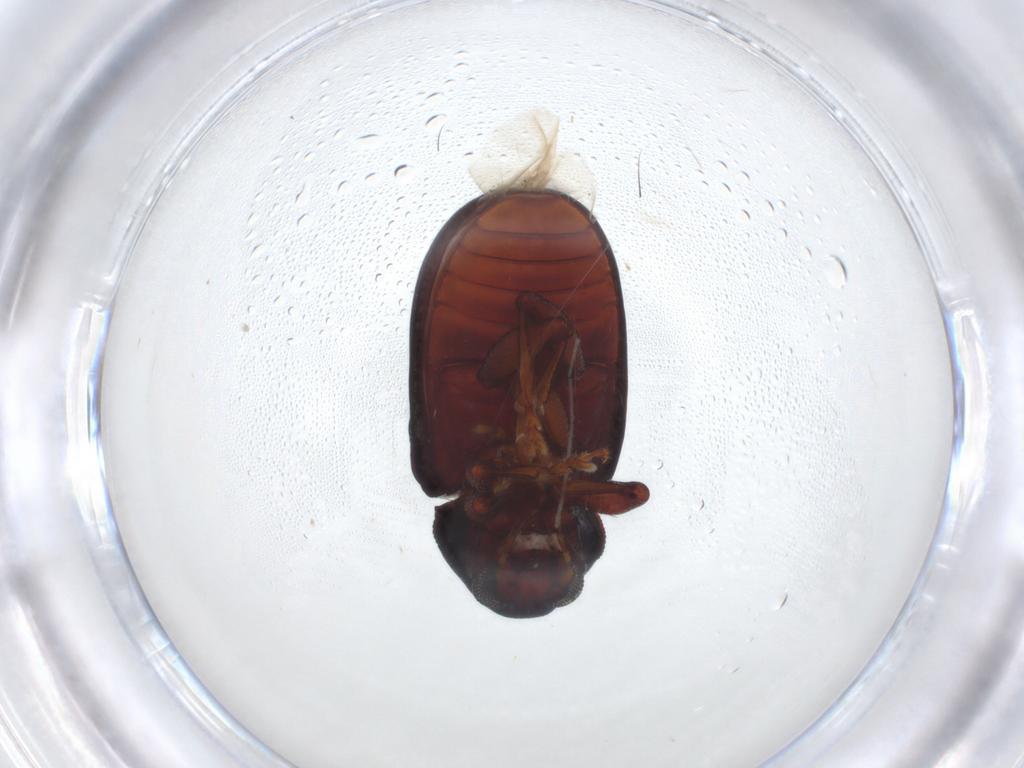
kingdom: Animalia
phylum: Arthropoda
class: Insecta
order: Coleoptera
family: Chrysomelidae
